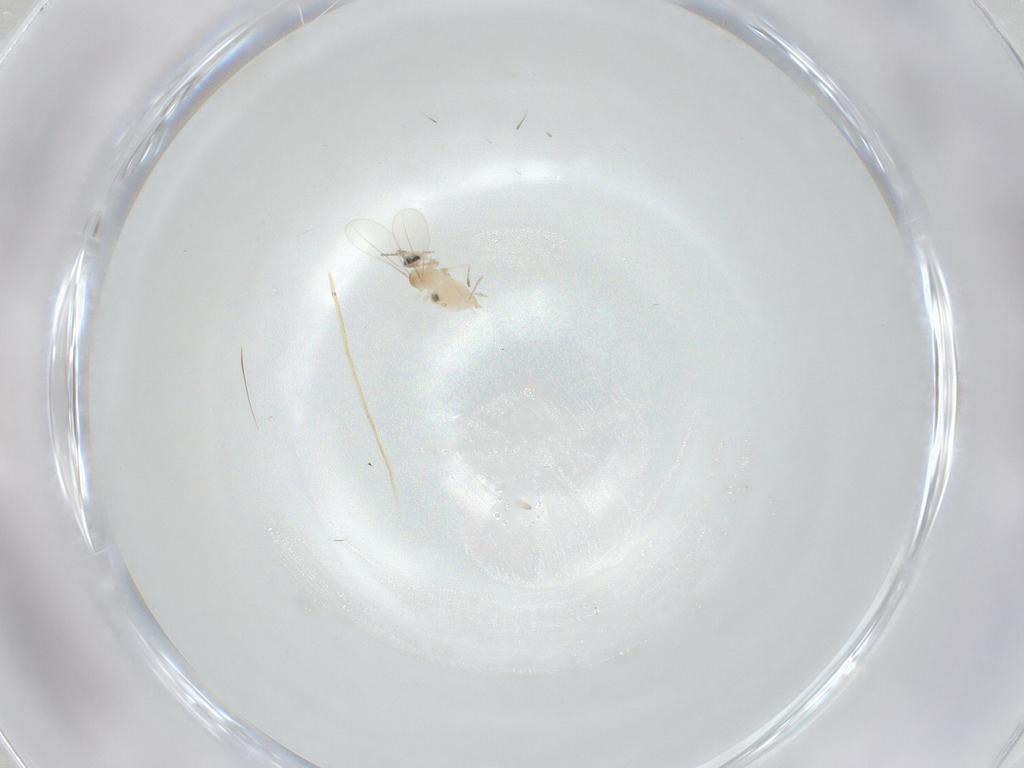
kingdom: Animalia
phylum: Arthropoda
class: Insecta
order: Diptera
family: Cecidomyiidae
